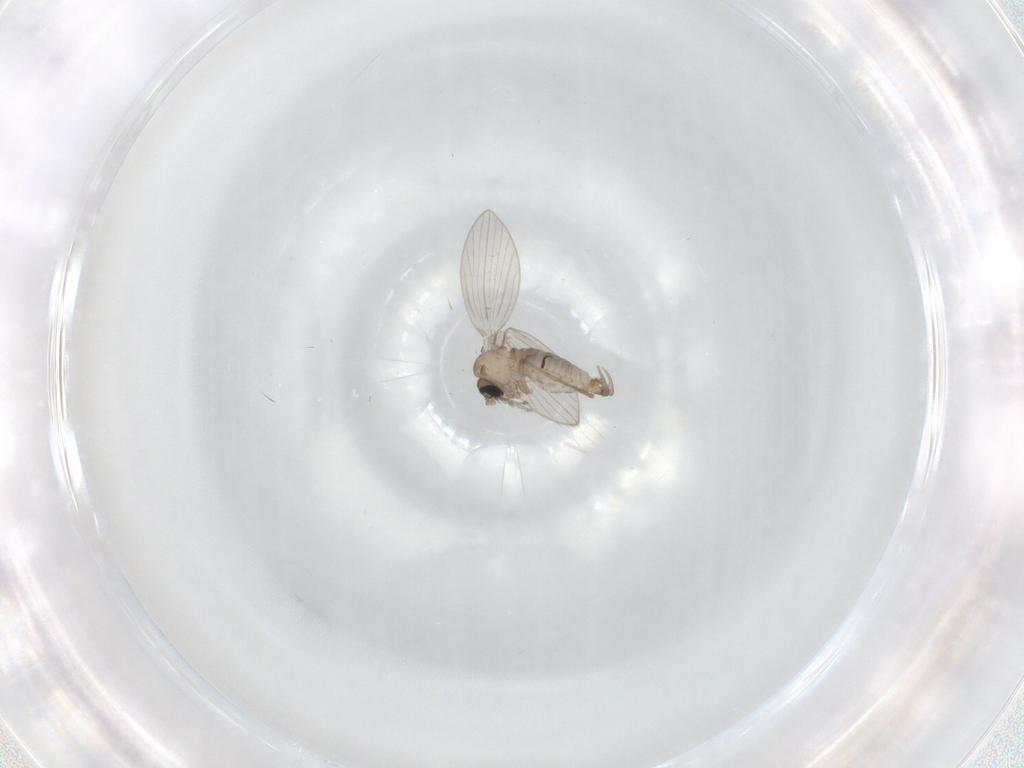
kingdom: Animalia
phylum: Arthropoda
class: Insecta
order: Diptera
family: Psychodidae
